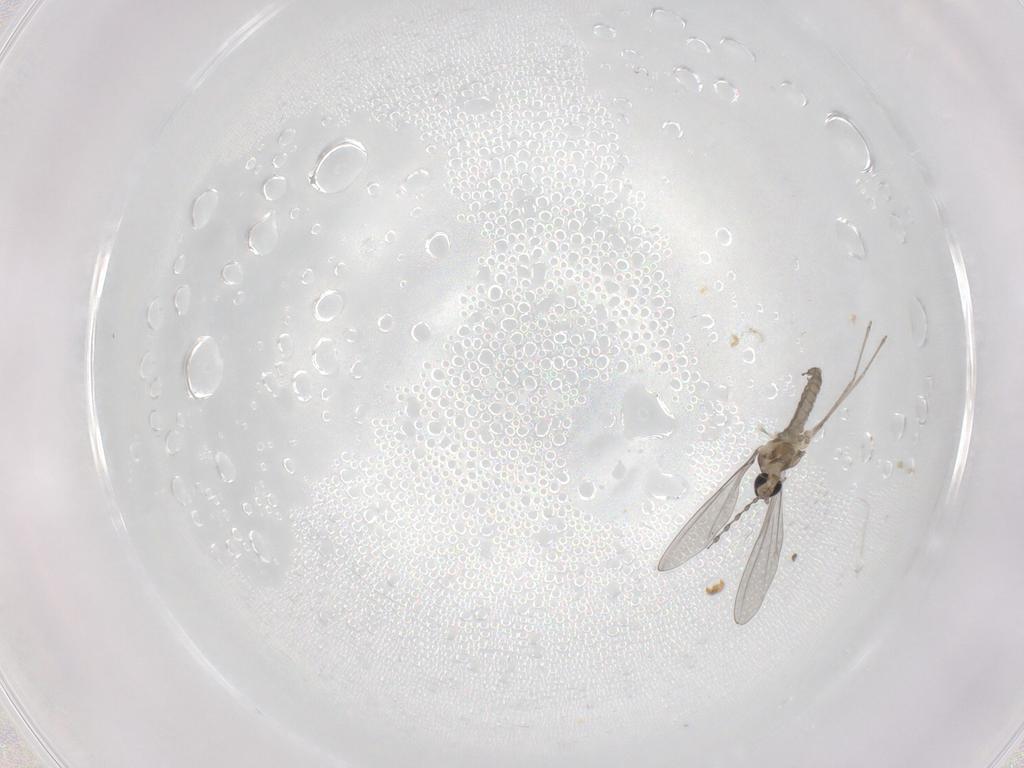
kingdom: Animalia
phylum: Arthropoda
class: Insecta
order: Diptera
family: Cecidomyiidae
